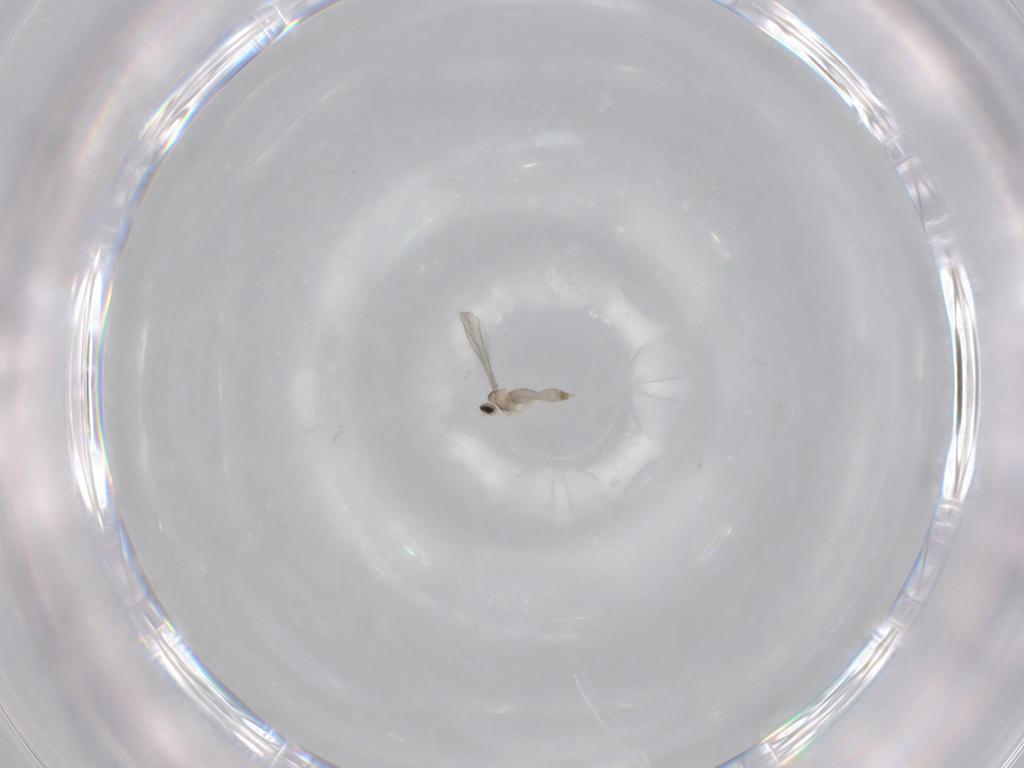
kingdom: Animalia
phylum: Arthropoda
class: Insecta
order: Diptera
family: Cecidomyiidae
